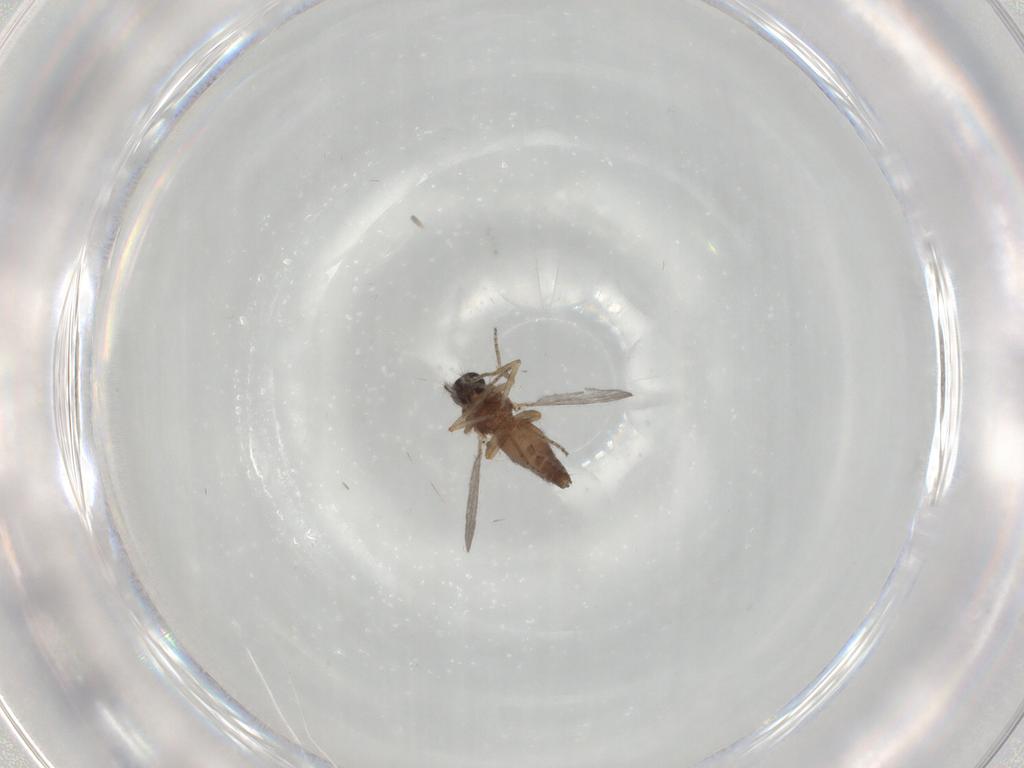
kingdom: Animalia
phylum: Arthropoda
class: Insecta
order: Diptera
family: Ceratopogonidae
